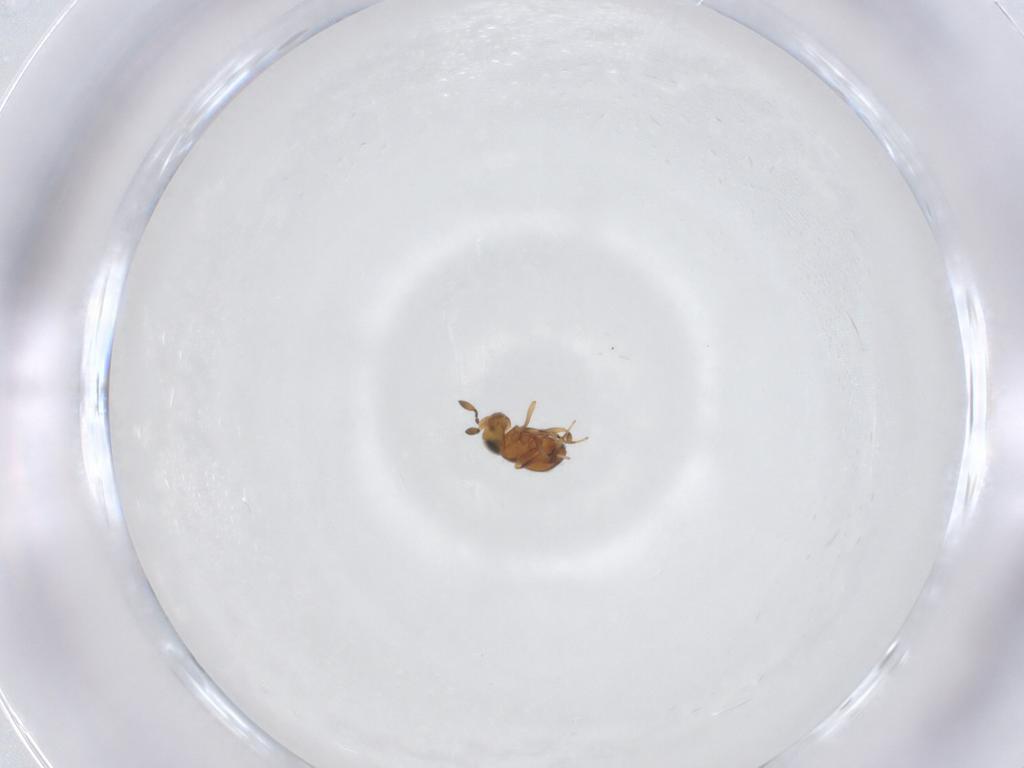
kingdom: Animalia
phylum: Arthropoda
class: Insecta
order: Hymenoptera
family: Scelionidae
